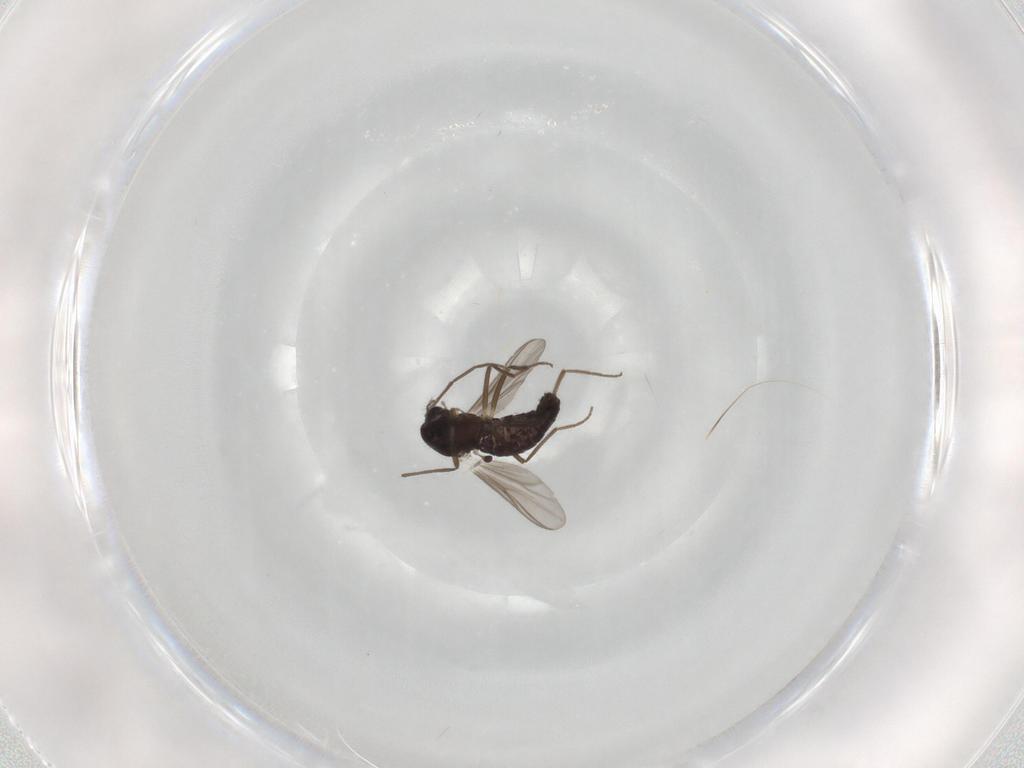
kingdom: Animalia
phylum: Arthropoda
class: Insecta
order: Diptera
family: Chironomidae
